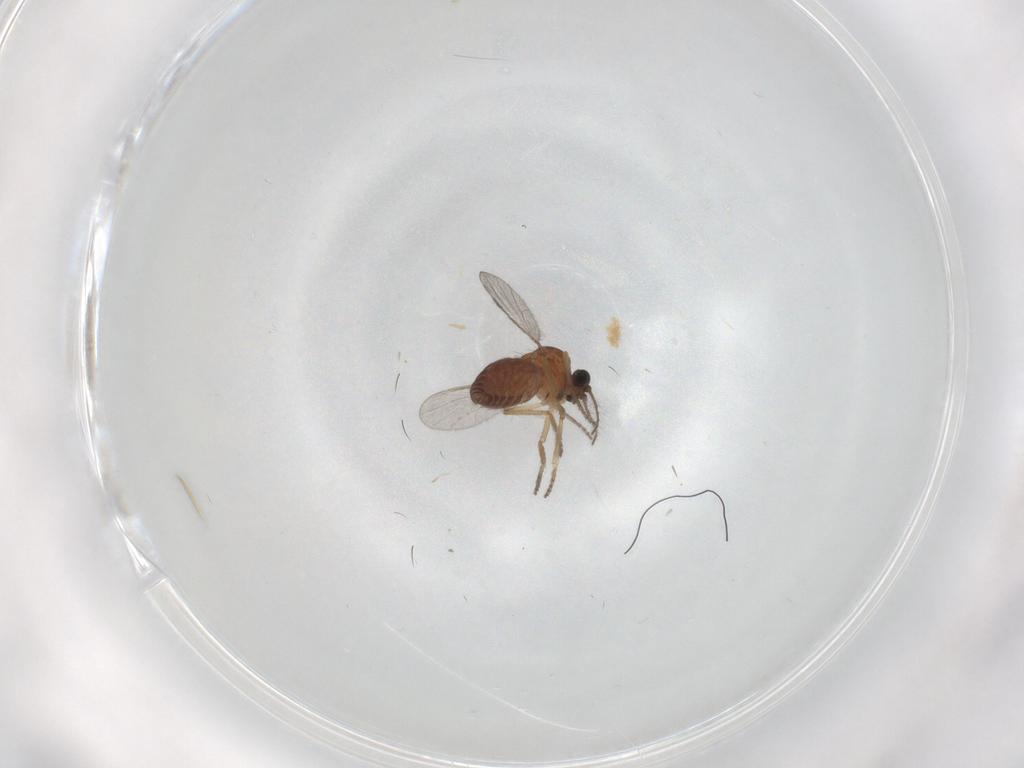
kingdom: Animalia
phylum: Arthropoda
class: Insecta
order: Diptera
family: Ceratopogonidae
